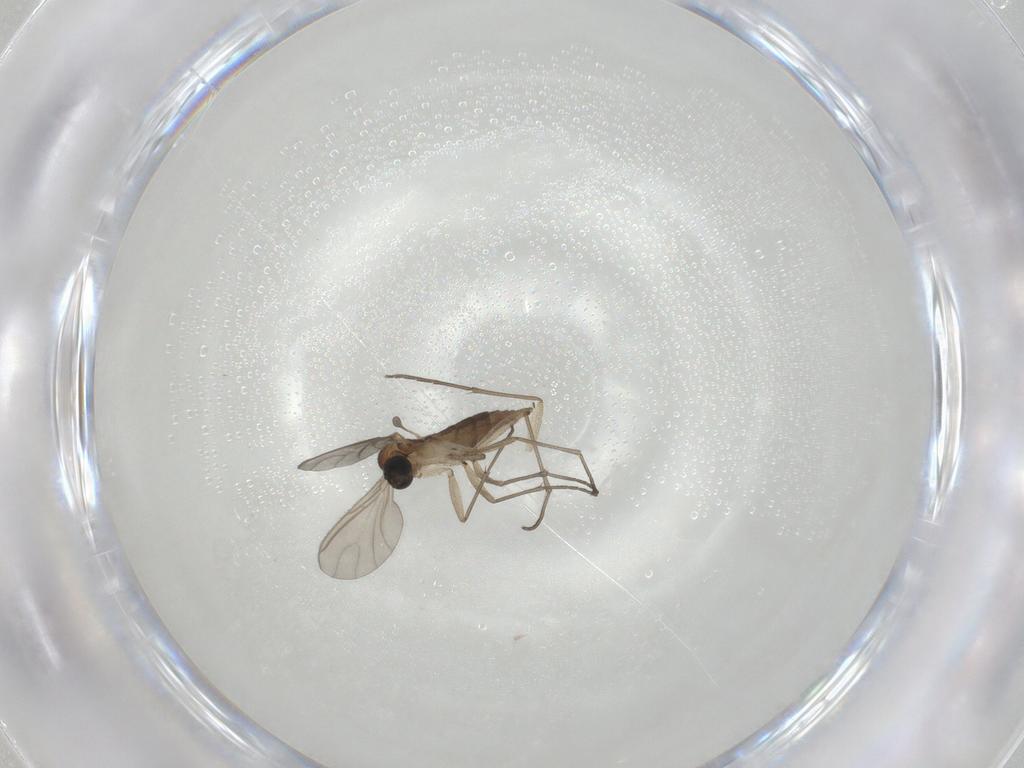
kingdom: Animalia
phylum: Arthropoda
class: Insecta
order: Diptera
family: Sciaridae
